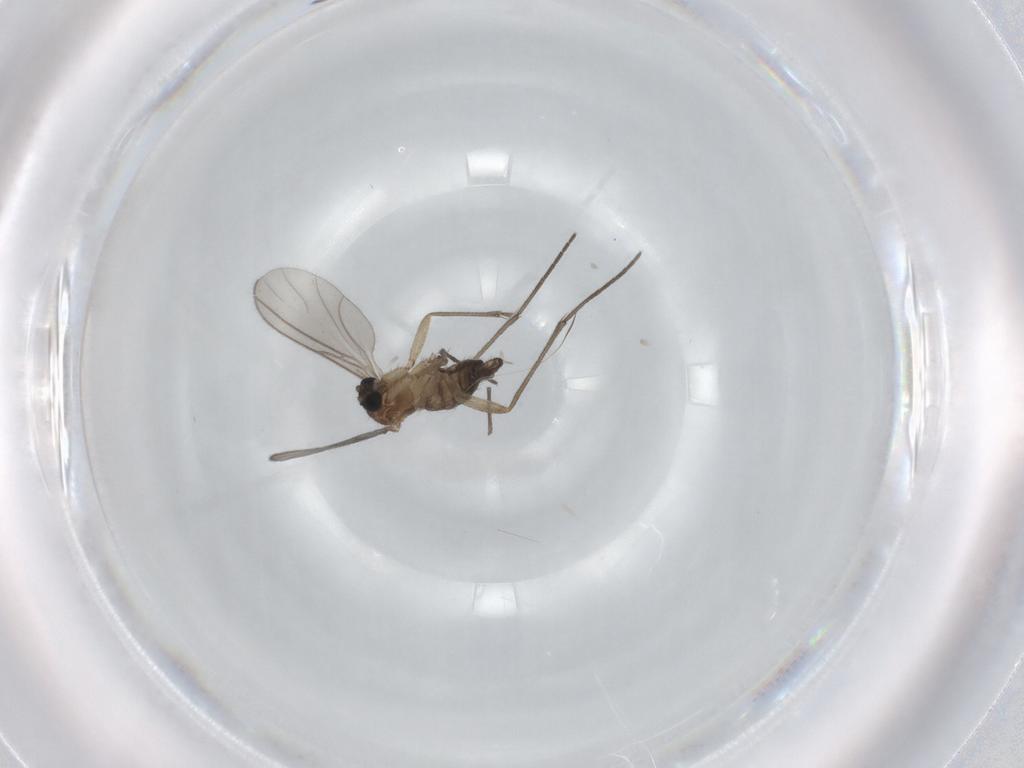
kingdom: Animalia
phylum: Arthropoda
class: Insecta
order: Diptera
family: Sciaridae
